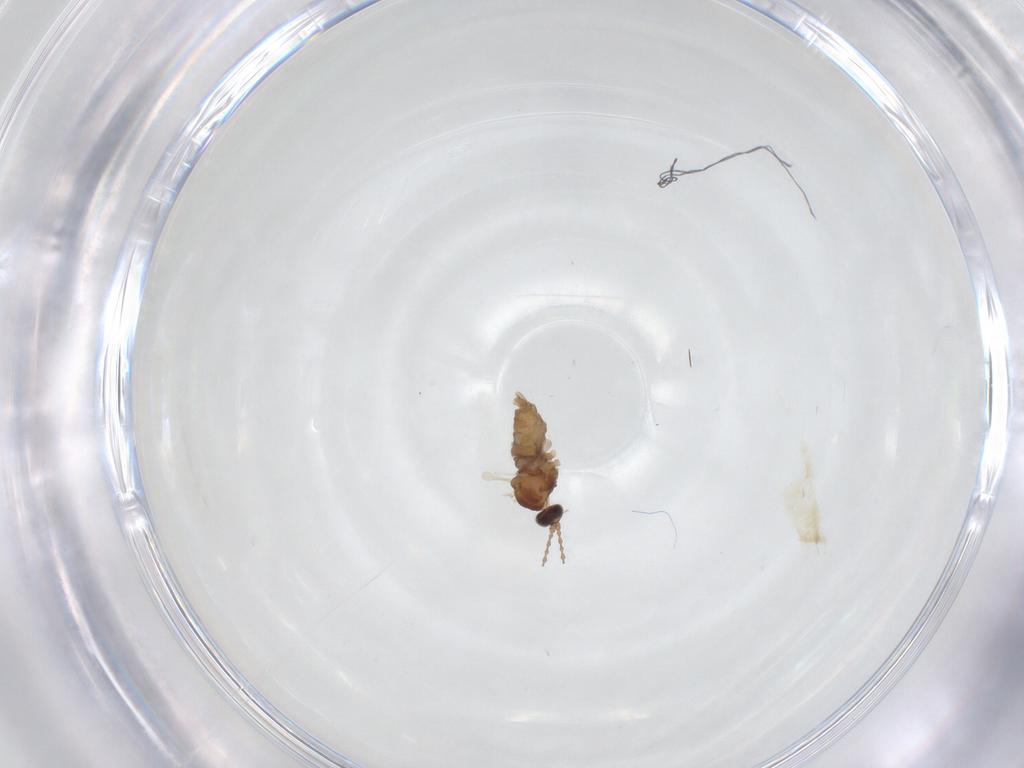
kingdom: Animalia
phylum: Arthropoda
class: Insecta
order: Diptera
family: Cecidomyiidae
